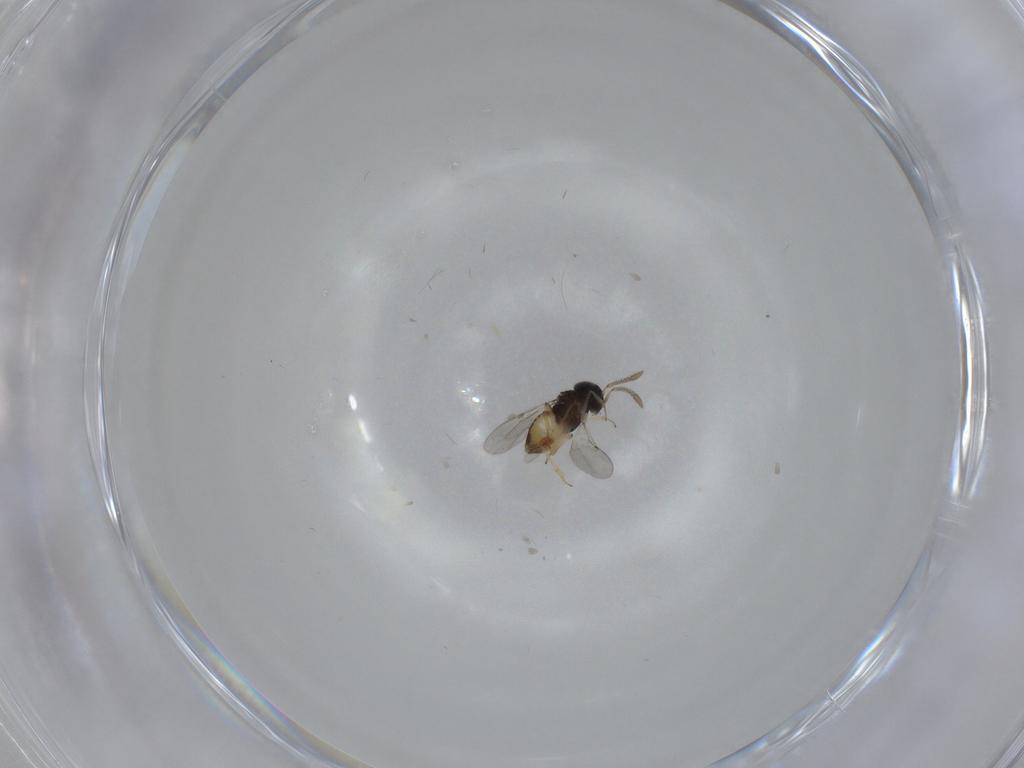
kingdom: Animalia
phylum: Arthropoda
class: Insecta
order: Hymenoptera
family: Encyrtidae
